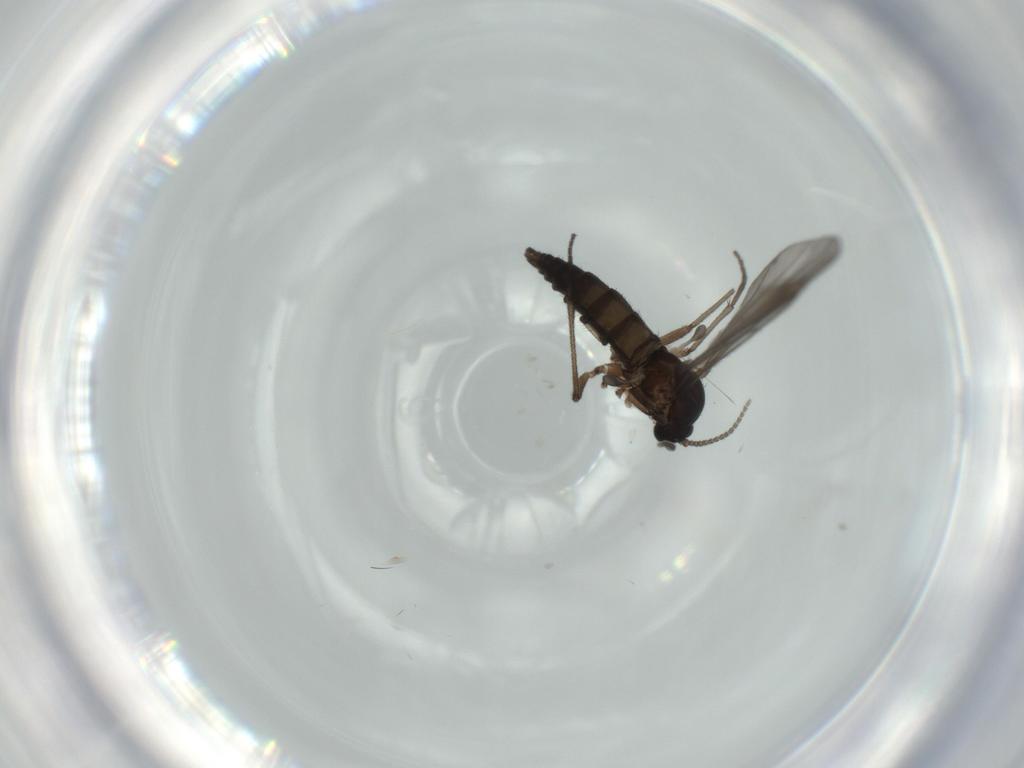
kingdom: Animalia
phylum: Arthropoda
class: Insecta
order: Diptera
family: Sciaridae
